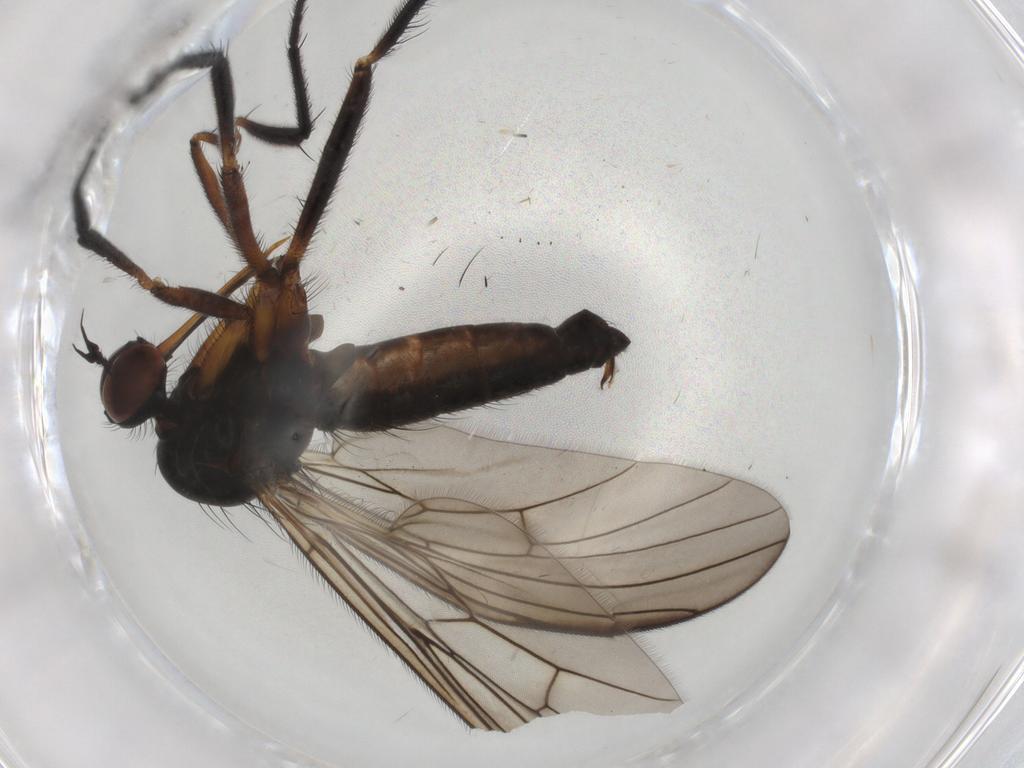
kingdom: Animalia
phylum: Arthropoda
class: Insecta
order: Diptera
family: Empididae
